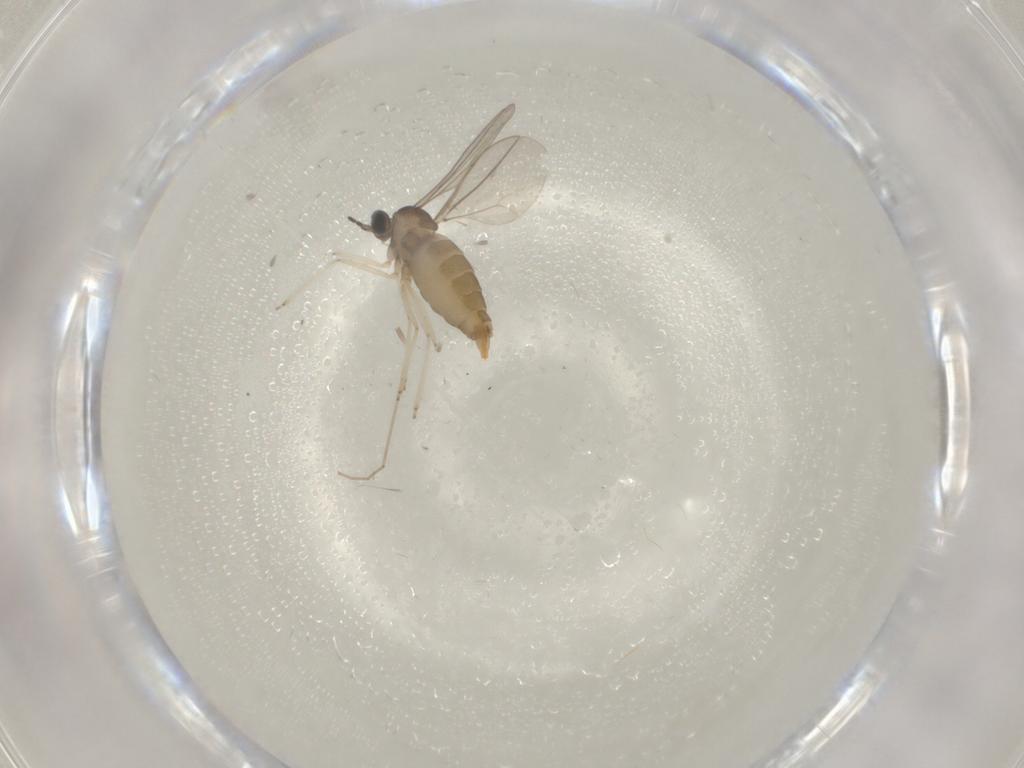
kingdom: Animalia
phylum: Arthropoda
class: Insecta
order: Diptera
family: Cecidomyiidae
